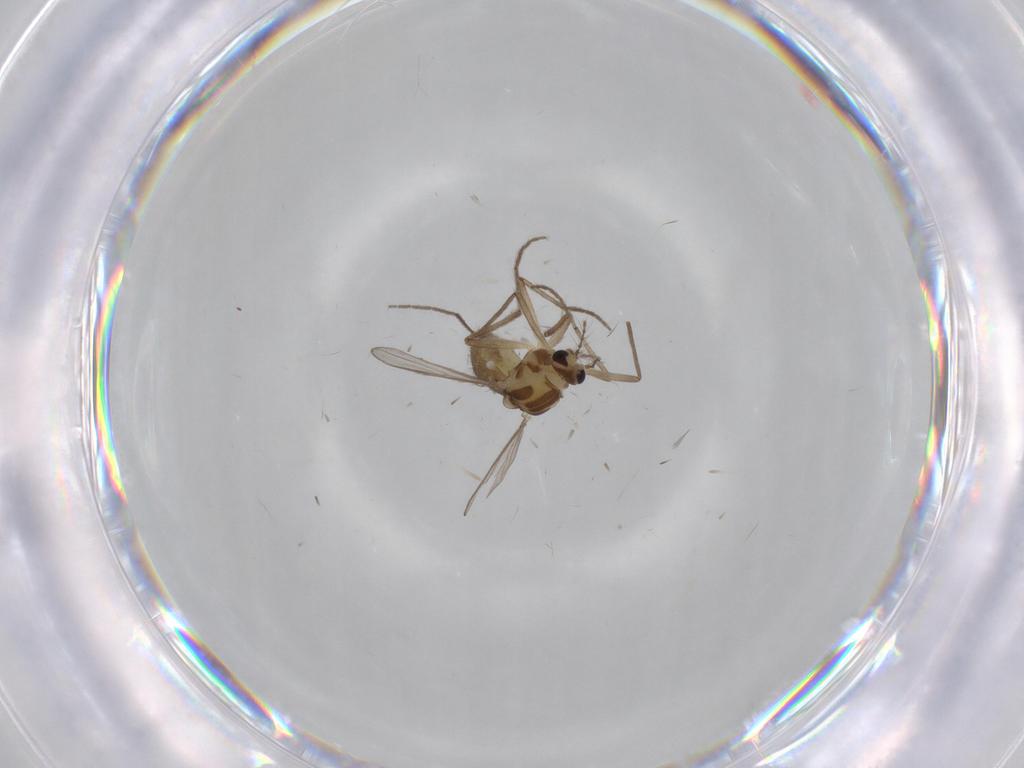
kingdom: Animalia
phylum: Arthropoda
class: Insecta
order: Diptera
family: Chironomidae
